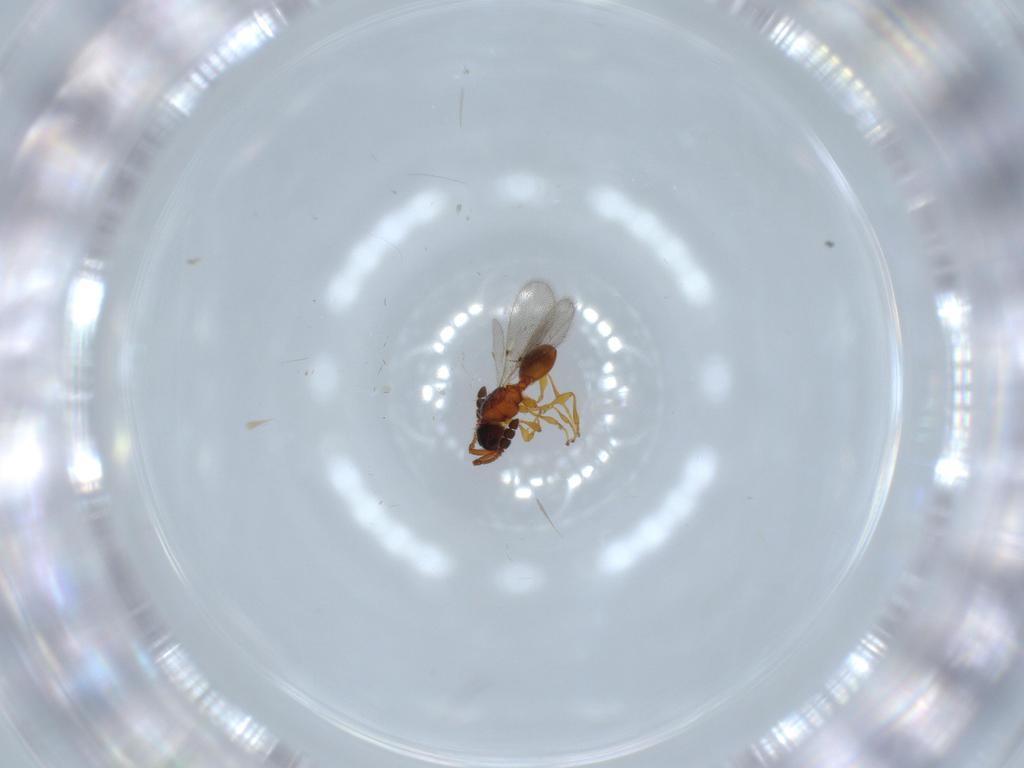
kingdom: Animalia
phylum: Arthropoda
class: Insecta
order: Hymenoptera
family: Diapriidae
